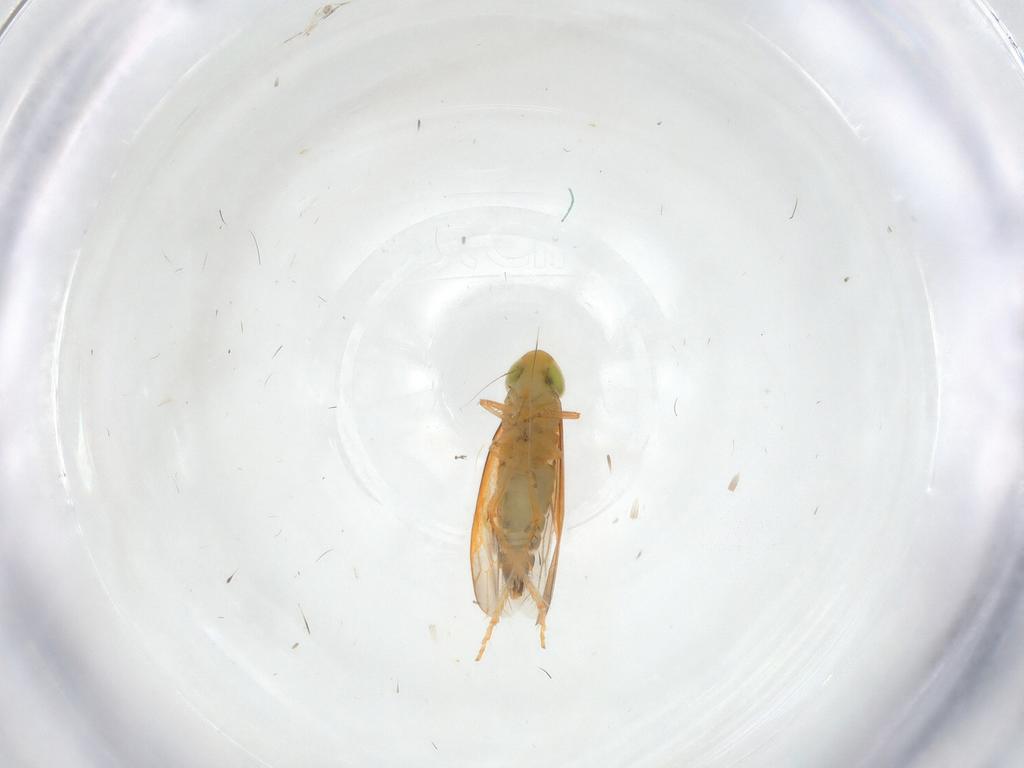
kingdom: Animalia
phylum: Arthropoda
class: Insecta
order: Hemiptera
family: Cicadellidae
